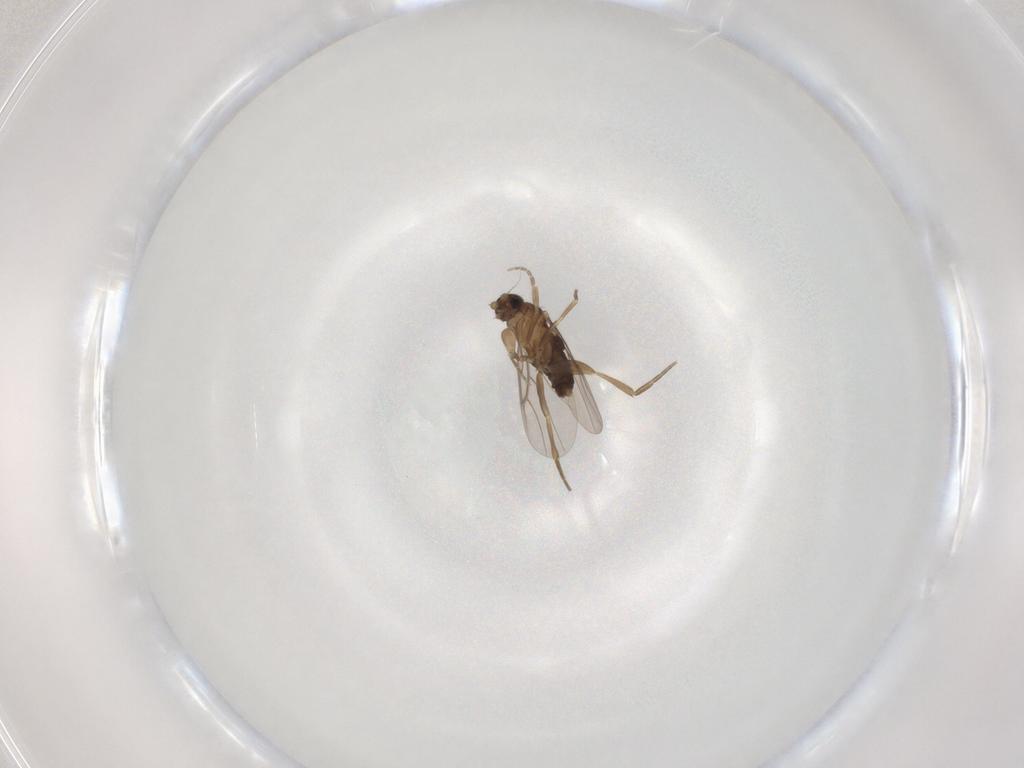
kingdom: Animalia
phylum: Arthropoda
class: Insecta
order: Diptera
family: Phoridae
